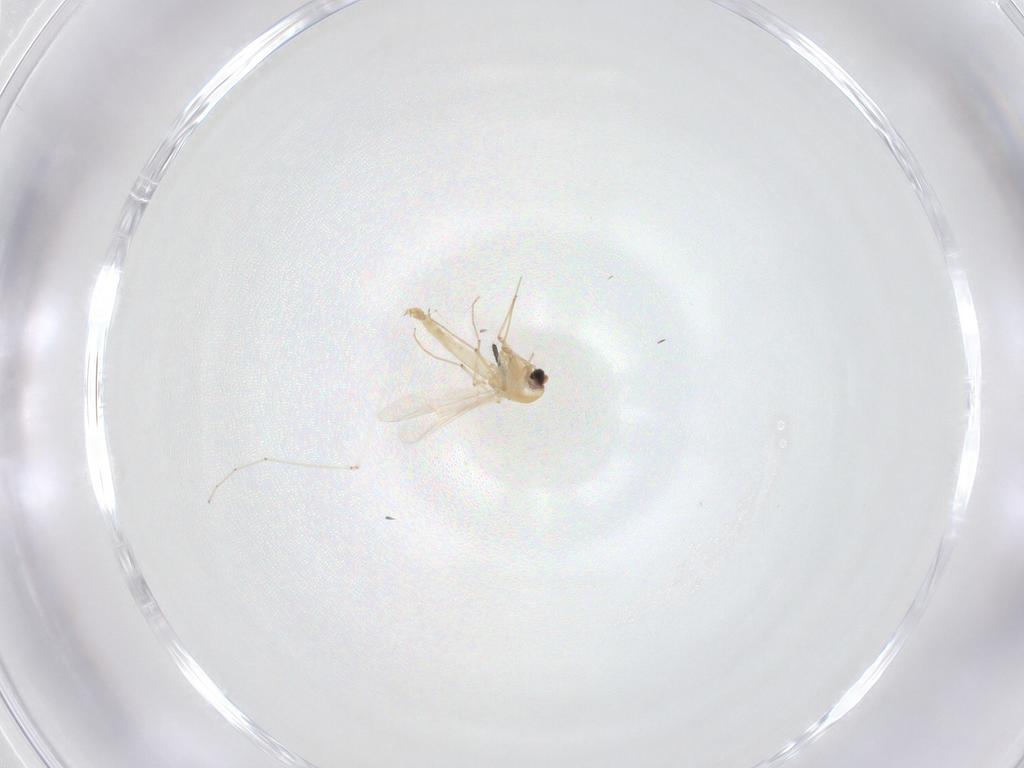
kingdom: Animalia
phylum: Arthropoda
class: Insecta
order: Diptera
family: Simuliidae
